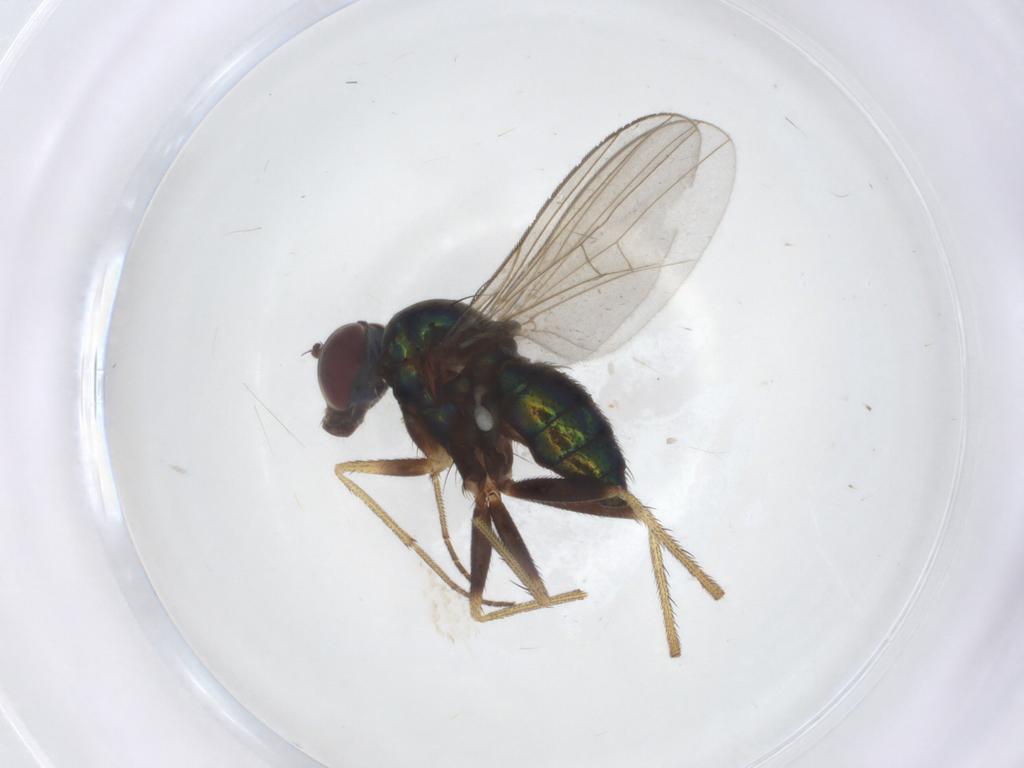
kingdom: Animalia
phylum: Arthropoda
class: Insecta
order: Diptera
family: Dolichopodidae
